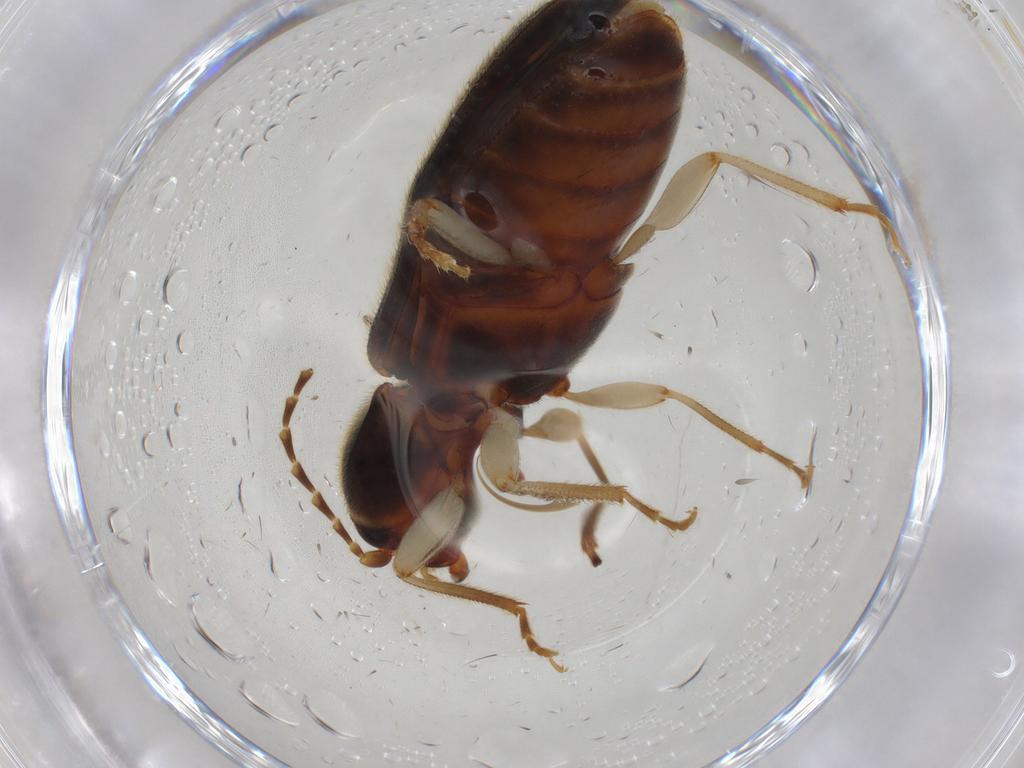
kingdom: Animalia
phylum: Arthropoda
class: Insecta
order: Coleoptera
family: Elateridae
